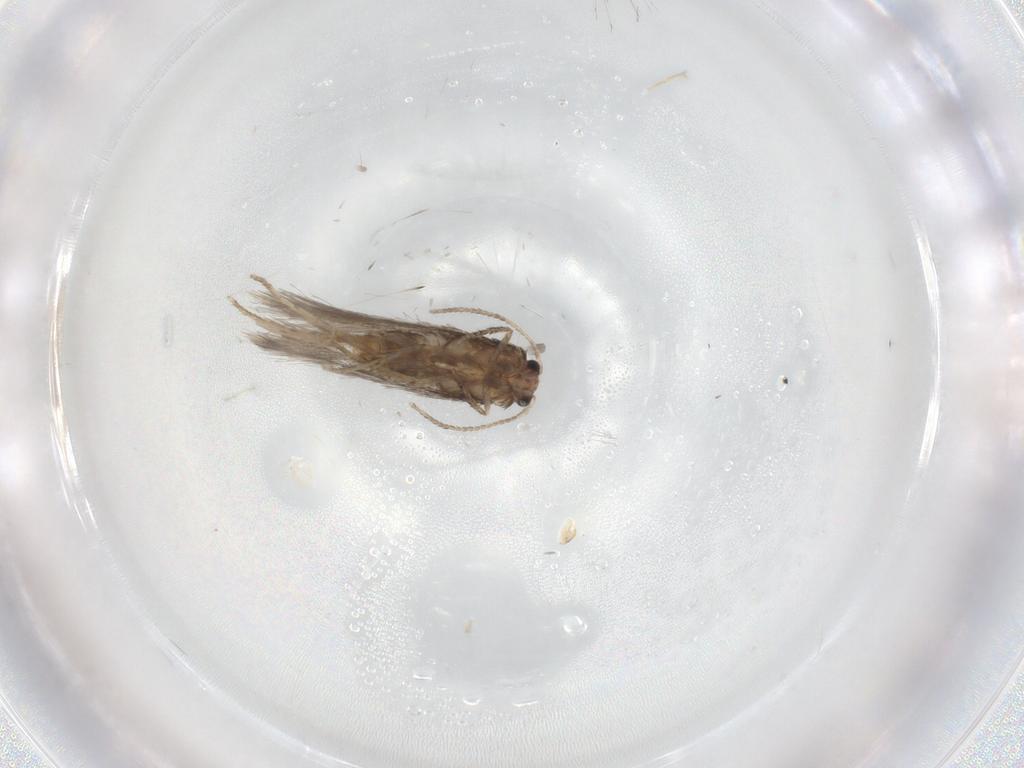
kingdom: Animalia
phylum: Arthropoda
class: Insecta
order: Lepidoptera
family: Nepticulidae
